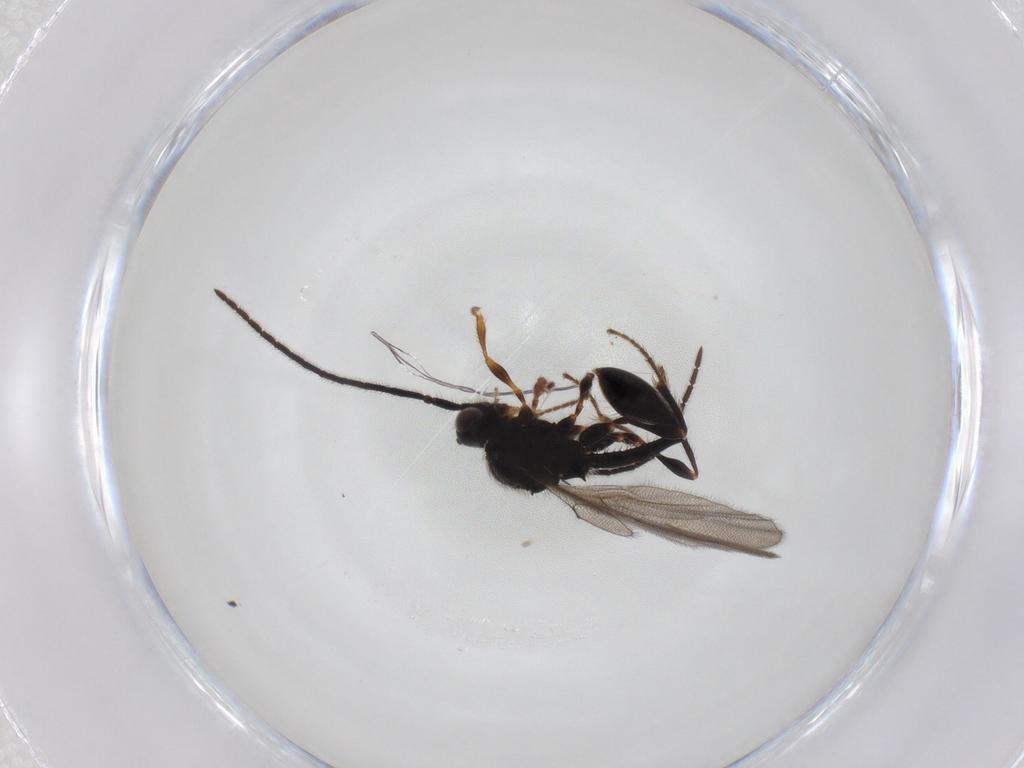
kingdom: Animalia
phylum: Arthropoda
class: Insecta
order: Hymenoptera
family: Diapriidae
